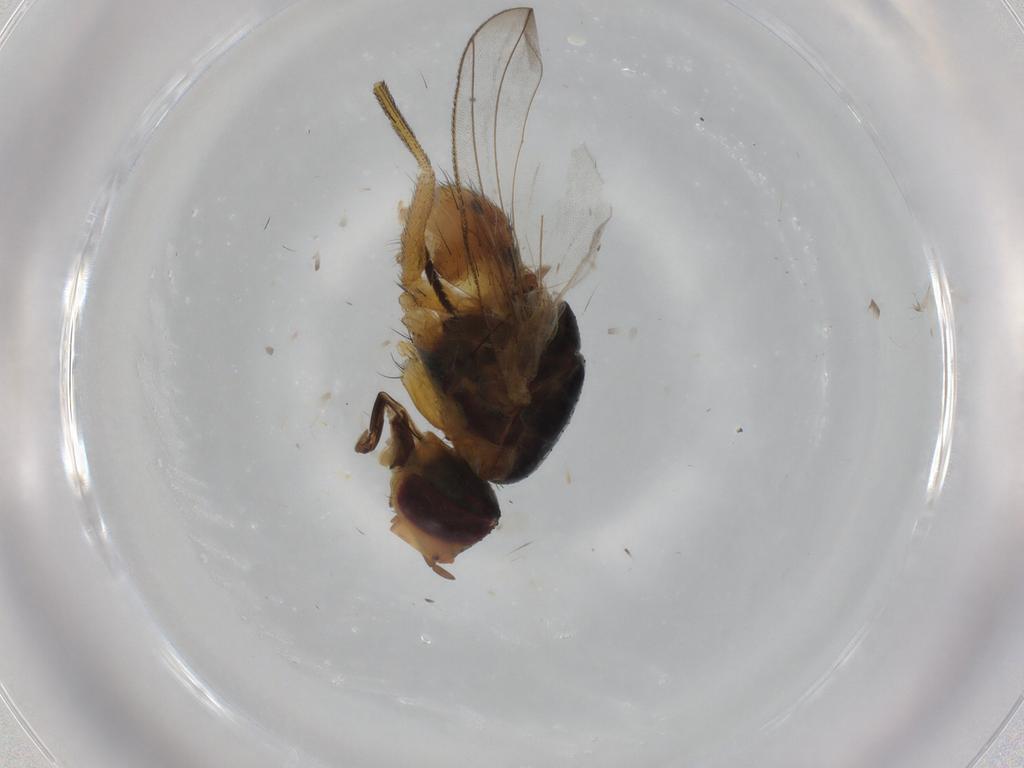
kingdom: Animalia
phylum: Arthropoda
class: Insecta
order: Diptera
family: Muscidae
